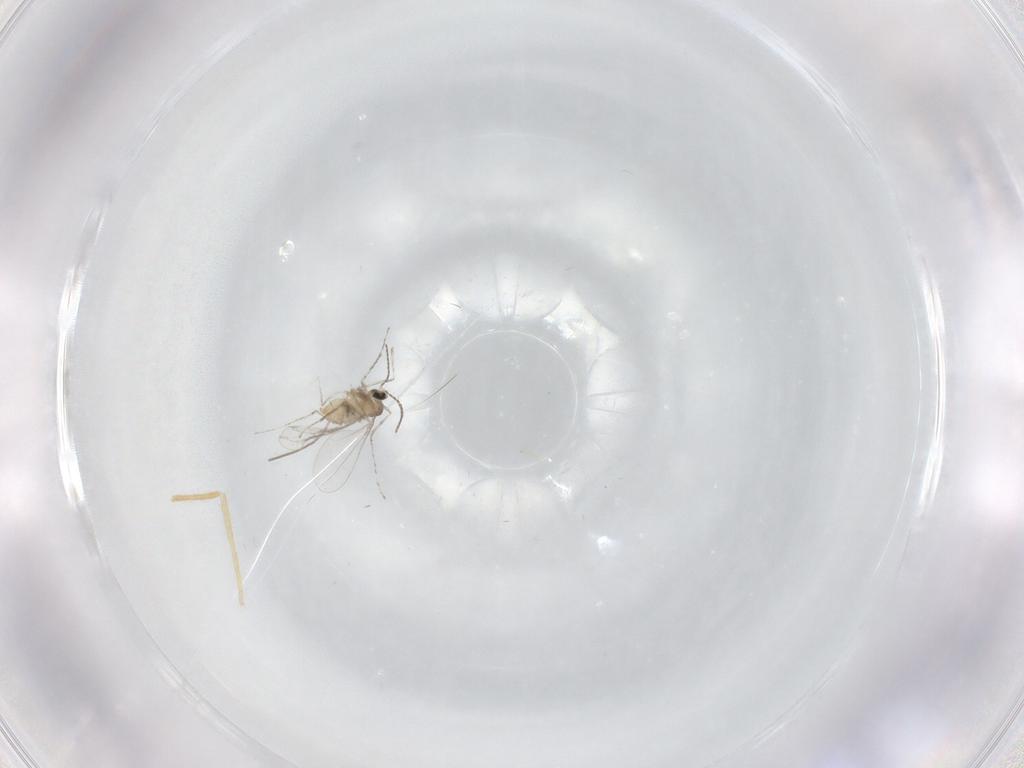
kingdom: Animalia
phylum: Arthropoda
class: Insecta
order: Diptera
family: Cecidomyiidae
